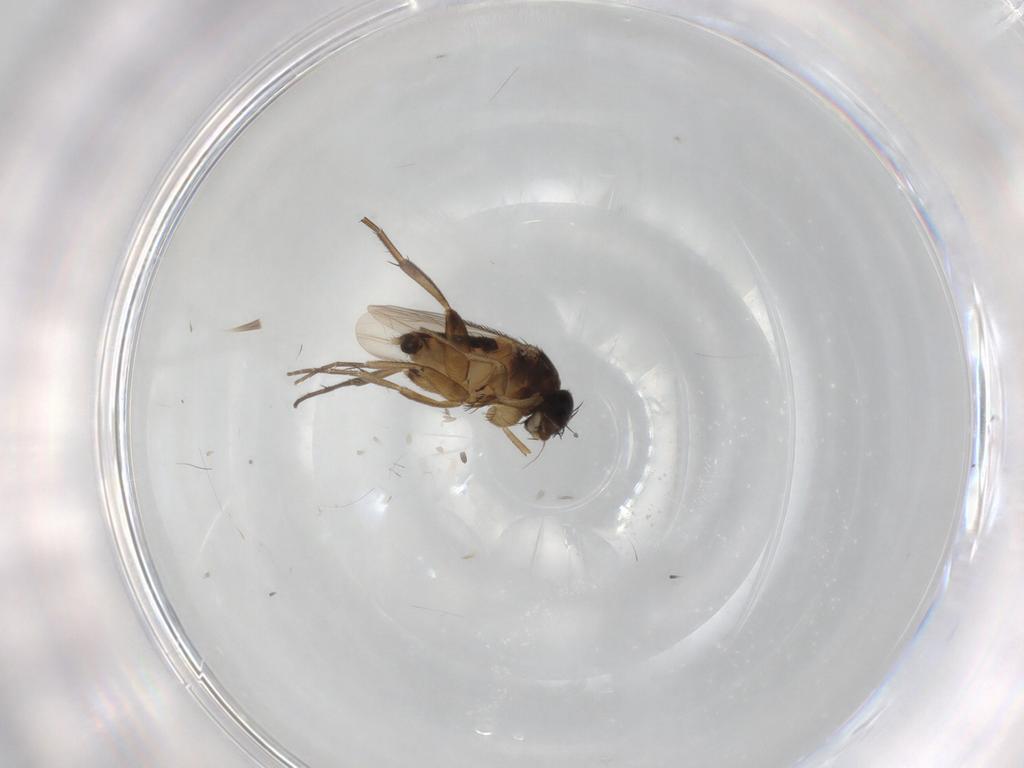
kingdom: Animalia
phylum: Arthropoda
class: Insecta
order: Diptera
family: Phoridae
